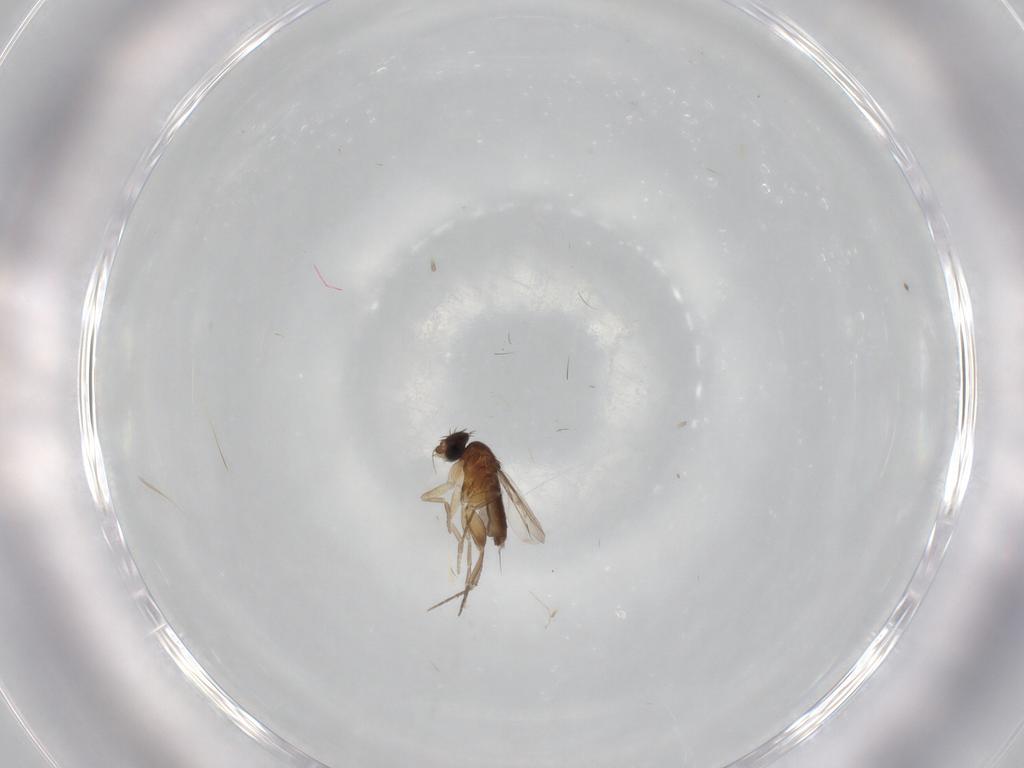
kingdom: Animalia
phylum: Arthropoda
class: Insecta
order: Diptera
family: Phoridae
